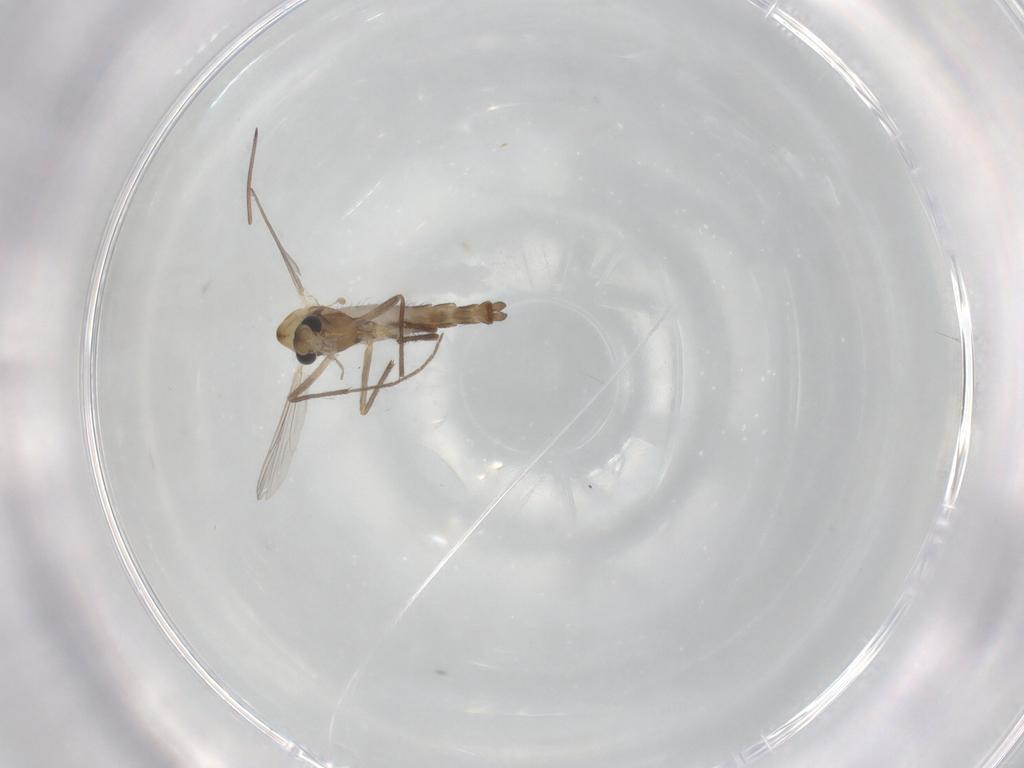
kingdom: Animalia
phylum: Arthropoda
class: Insecta
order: Diptera
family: Chironomidae
